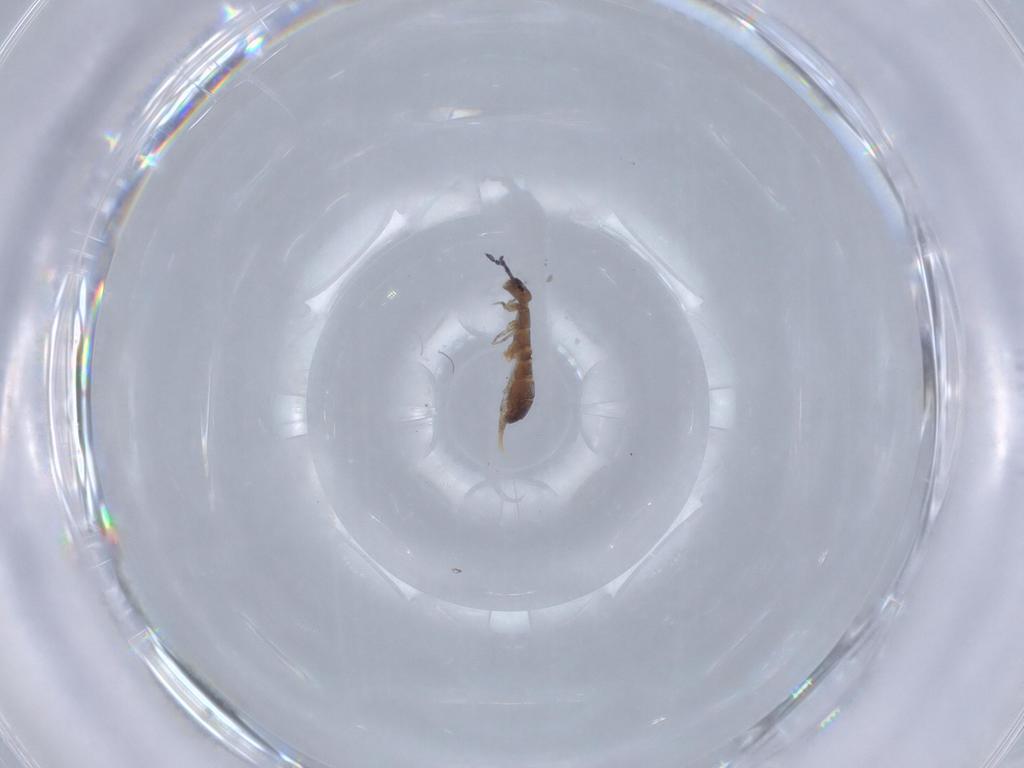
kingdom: Animalia
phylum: Arthropoda
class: Collembola
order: Entomobryomorpha
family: Isotomidae
